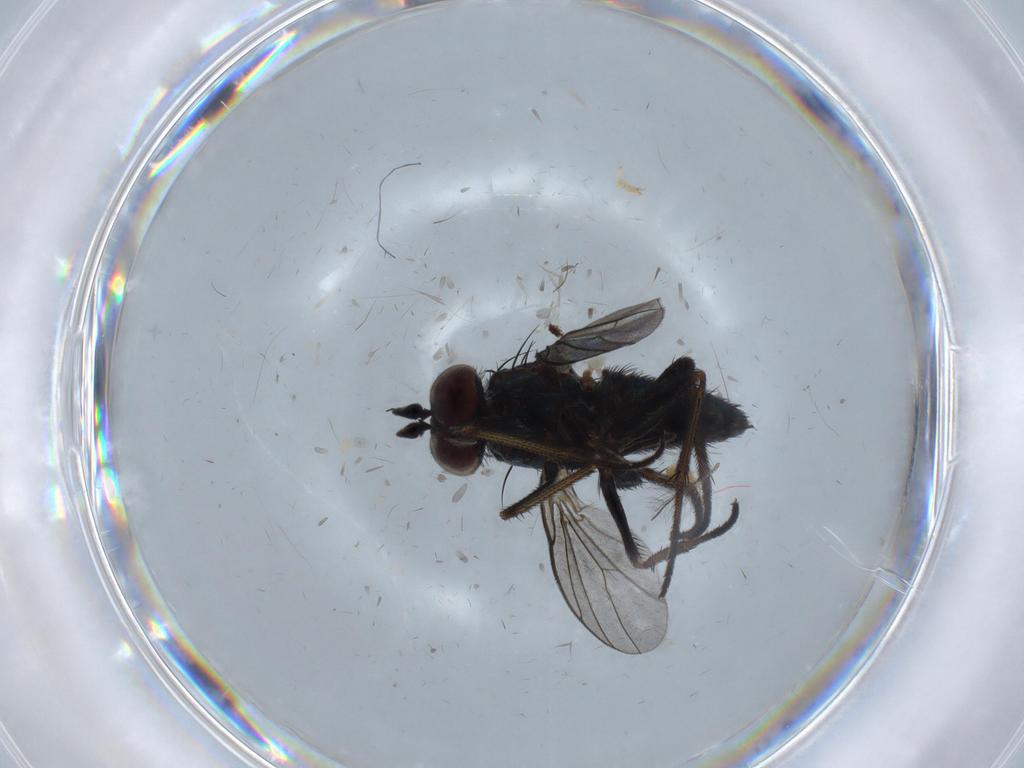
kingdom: Animalia
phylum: Arthropoda
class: Insecta
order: Diptera
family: Dolichopodidae
